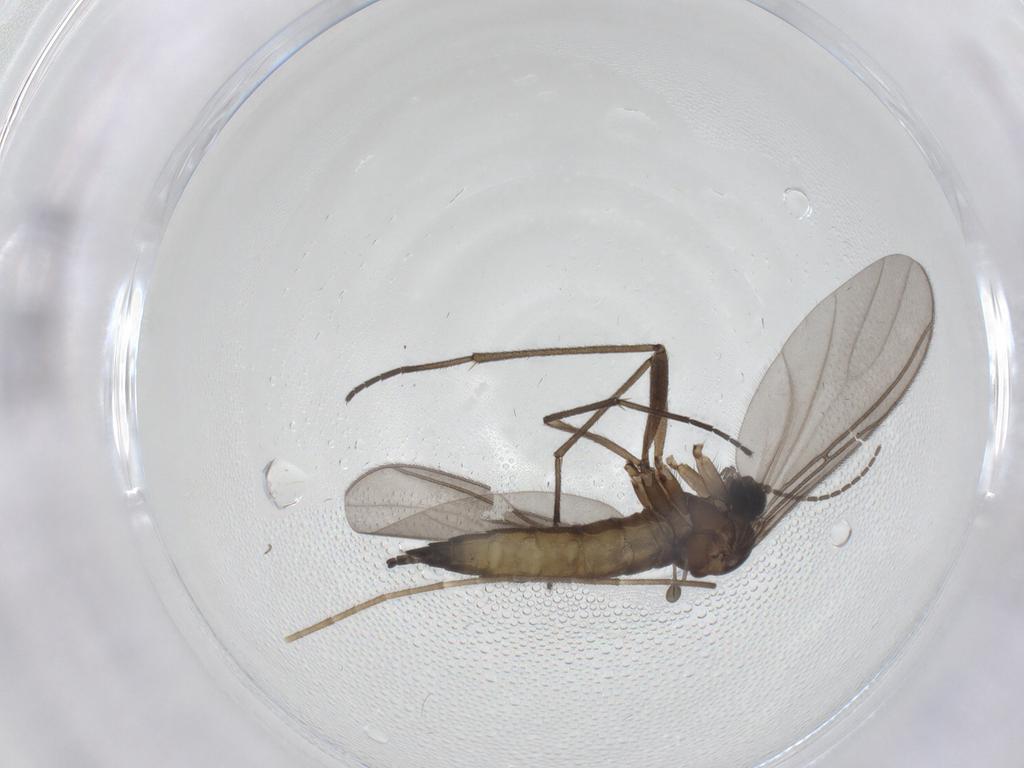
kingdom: Animalia
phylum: Arthropoda
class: Insecta
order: Diptera
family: Sciaridae
